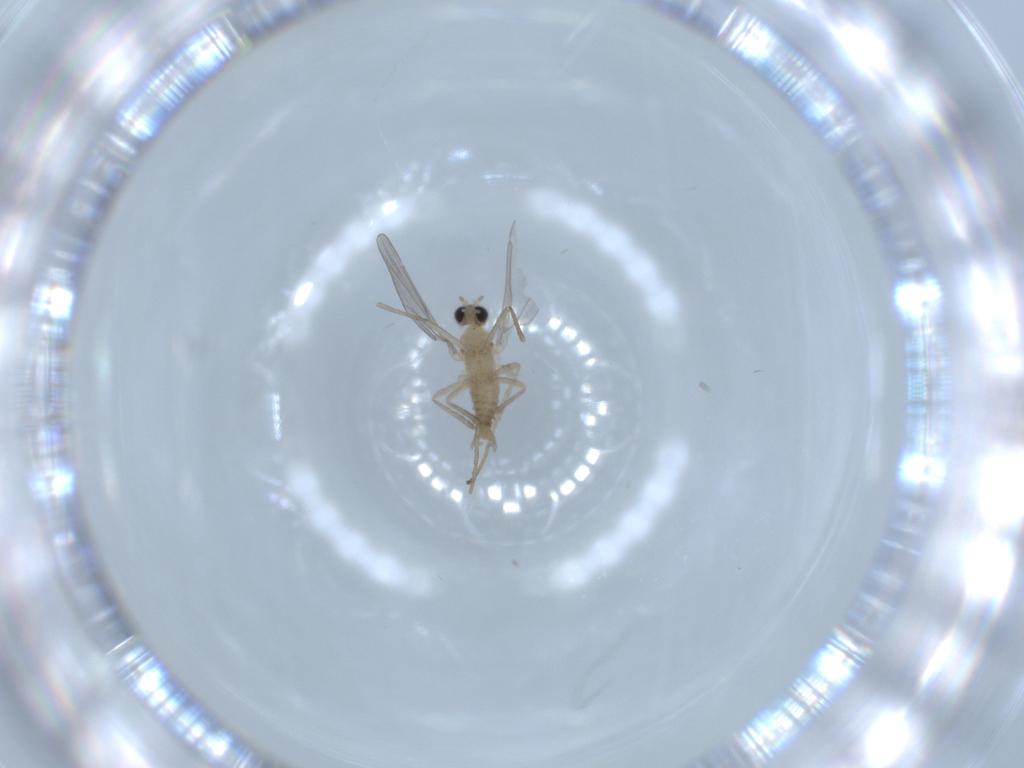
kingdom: Animalia
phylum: Arthropoda
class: Insecta
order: Diptera
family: Cecidomyiidae
